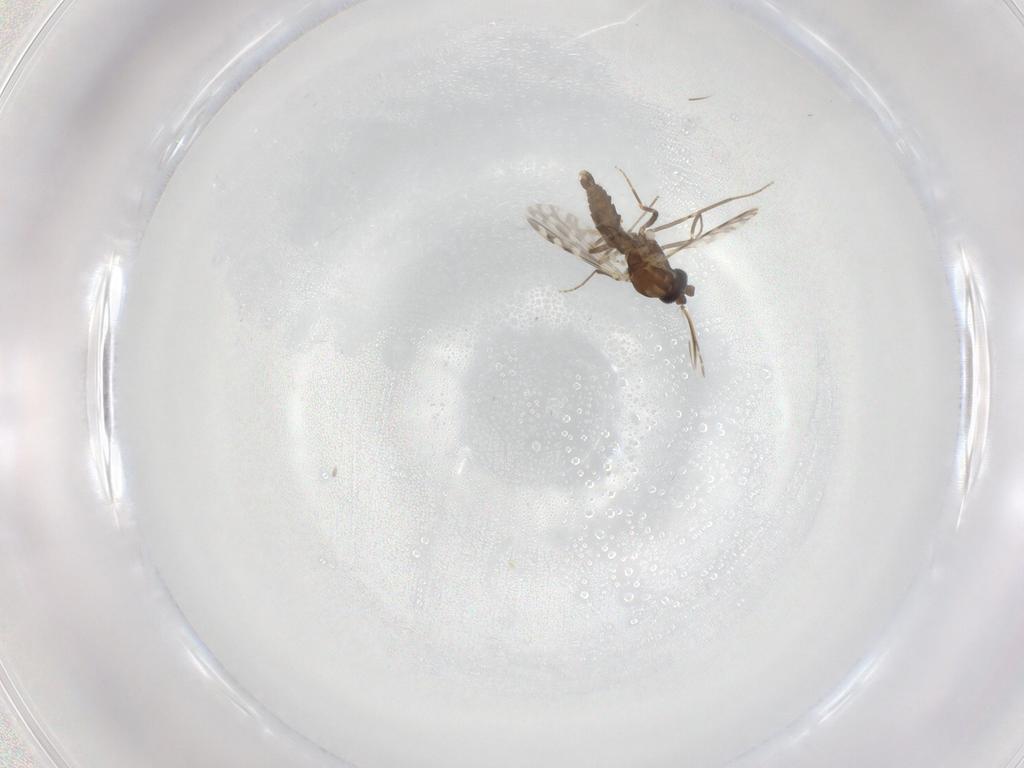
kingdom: Animalia
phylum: Arthropoda
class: Insecta
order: Diptera
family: Ceratopogonidae
